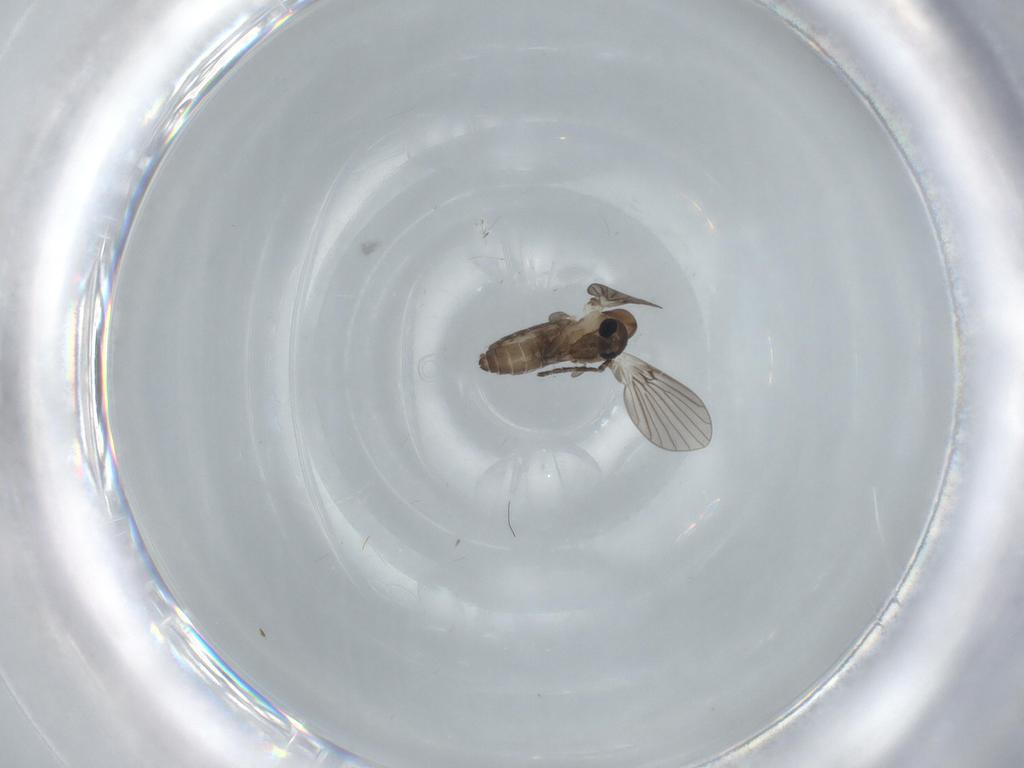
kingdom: Animalia
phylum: Arthropoda
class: Insecta
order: Diptera
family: Psychodidae
